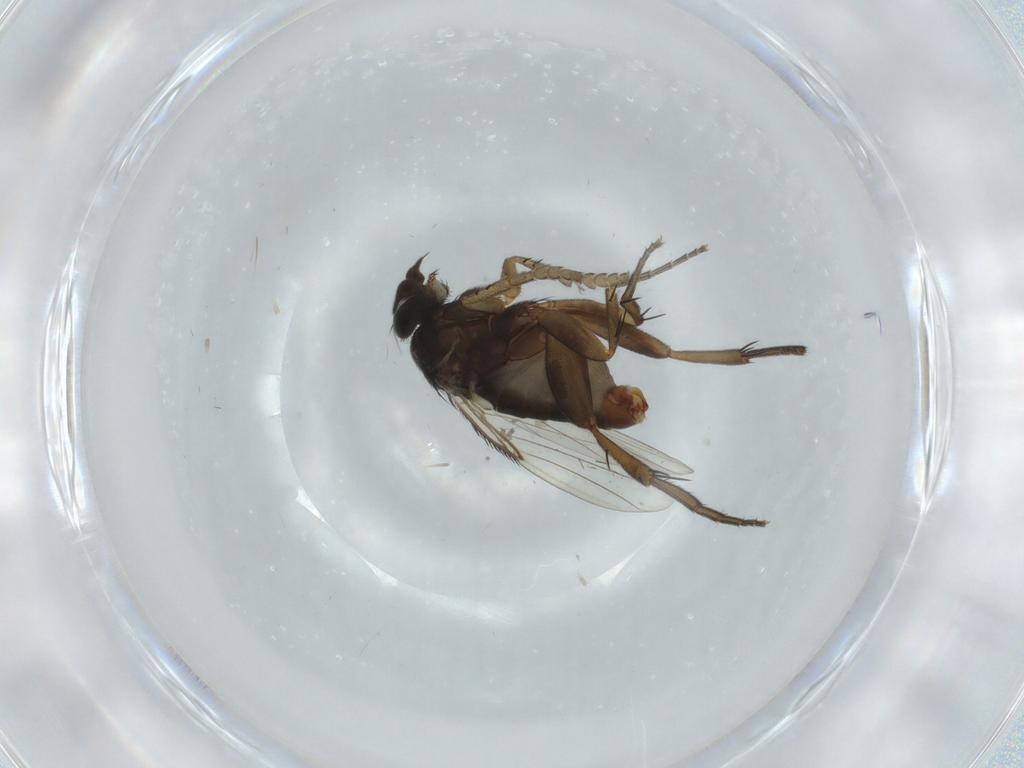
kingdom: Animalia
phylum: Arthropoda
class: Insecta
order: Diptera
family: Phoridae
